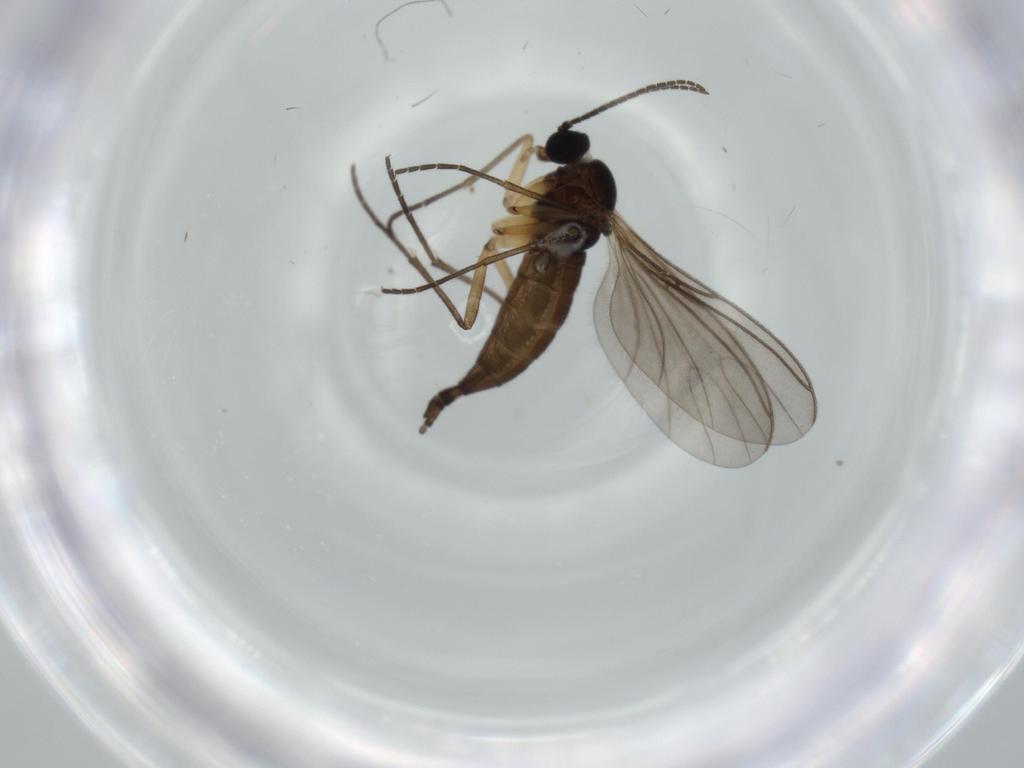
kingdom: Animalia
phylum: Arthropoda
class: Insecta
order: Diptera
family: Sciaridae
